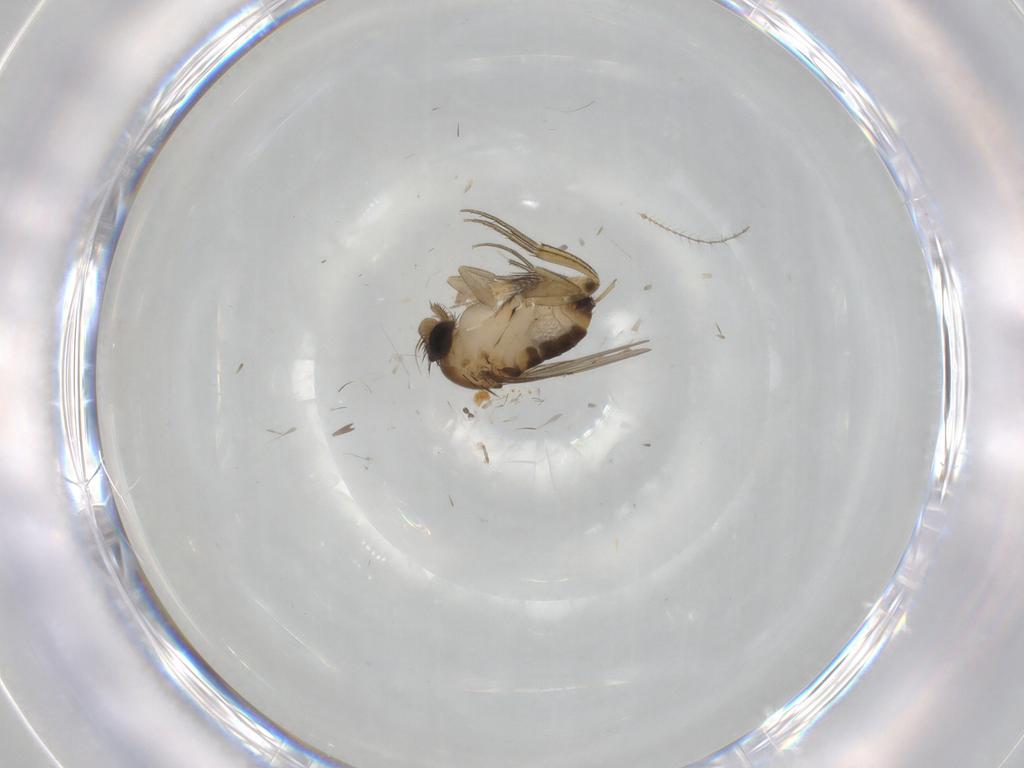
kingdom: Animalia
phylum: Arthropoda
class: Insecta
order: Diptera
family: Ceratopogonidae
